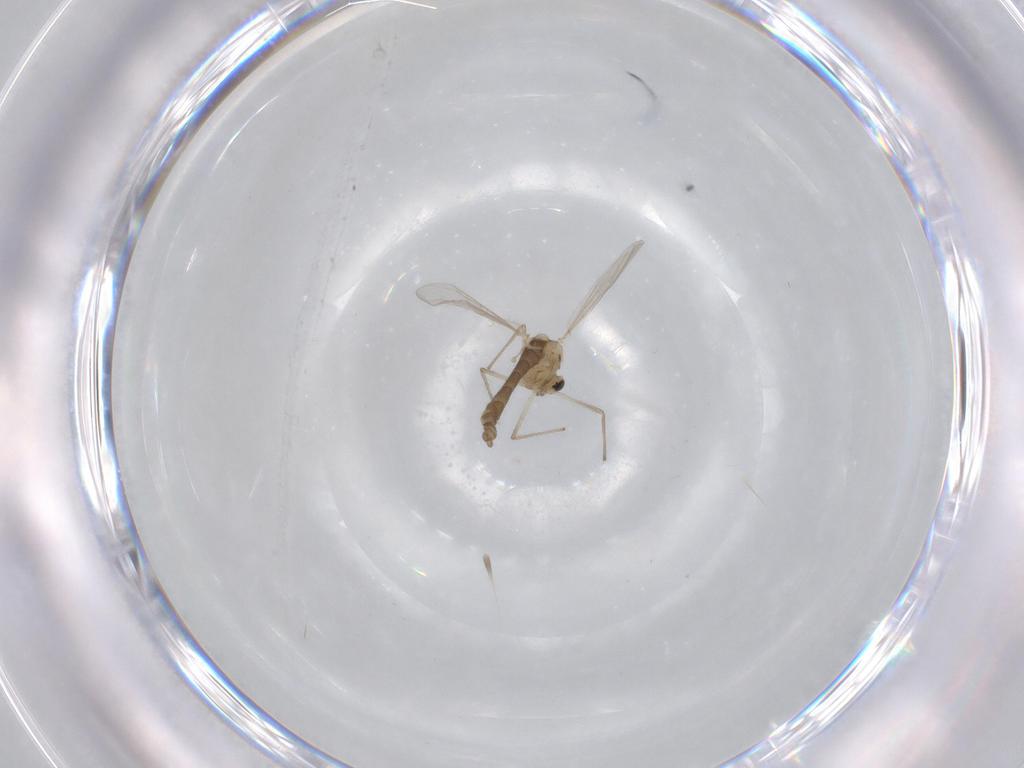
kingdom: Animalia
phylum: Arthropoda
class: Insecta
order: Diptera
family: Chironomidae
